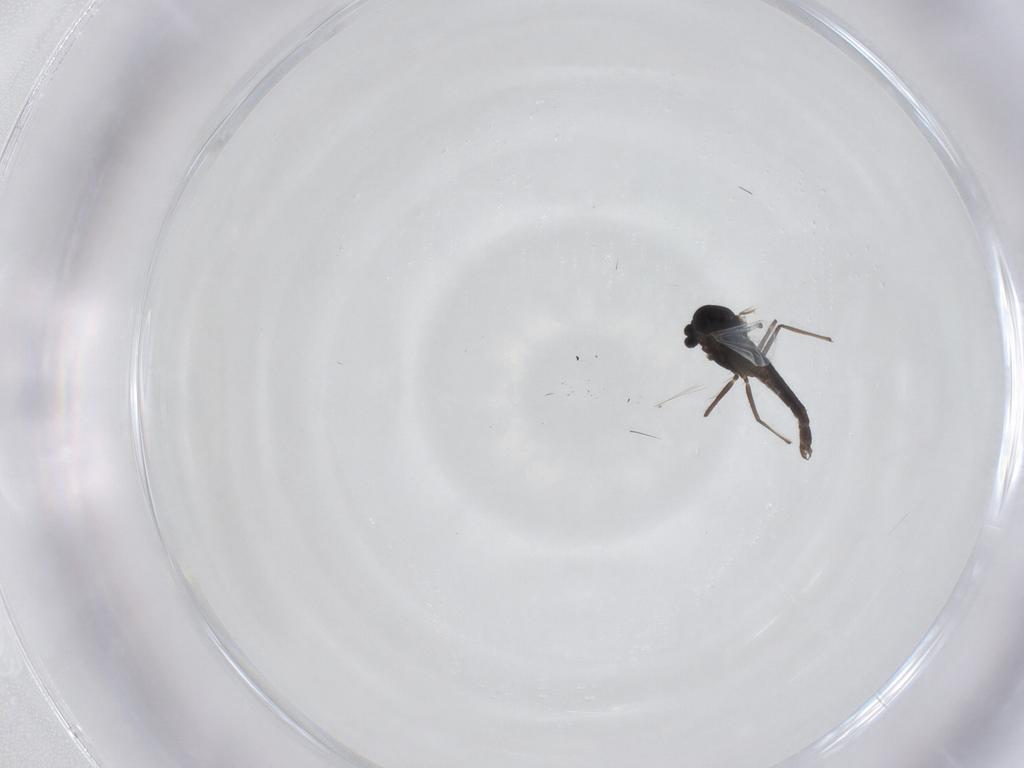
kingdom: Animalia
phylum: Arthropoda
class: Insecta
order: Diptera
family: Chironomidae
